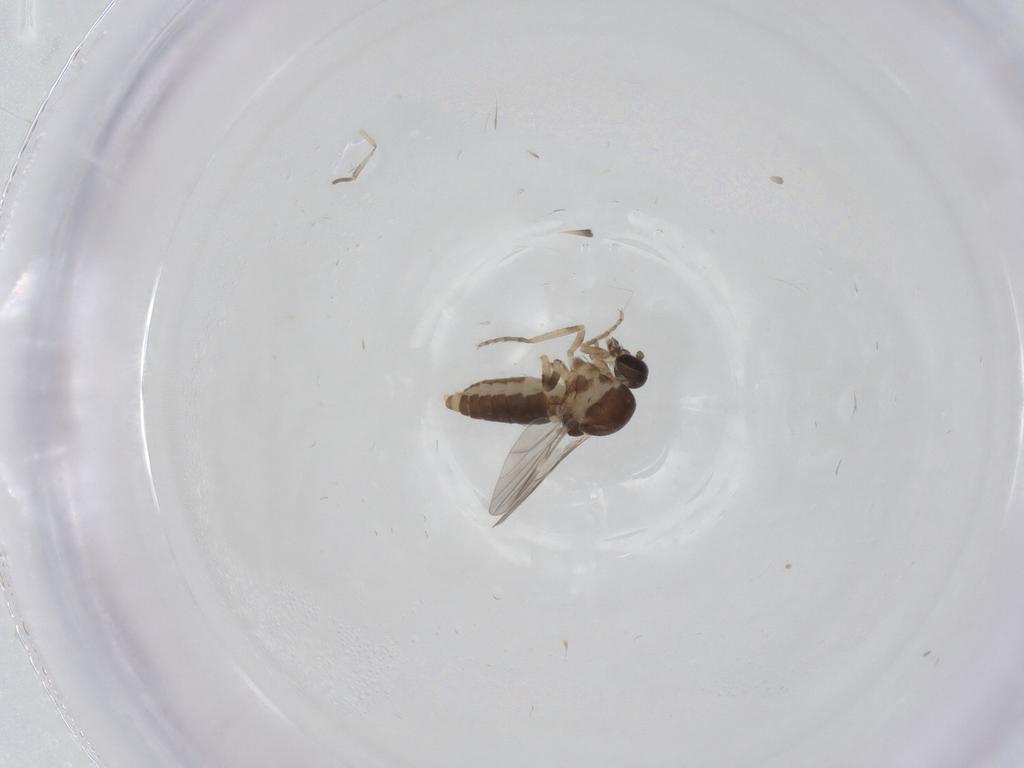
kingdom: Animalia
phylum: Arthropoda
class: Insecta
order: Diptera
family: Ceratopogonidae
